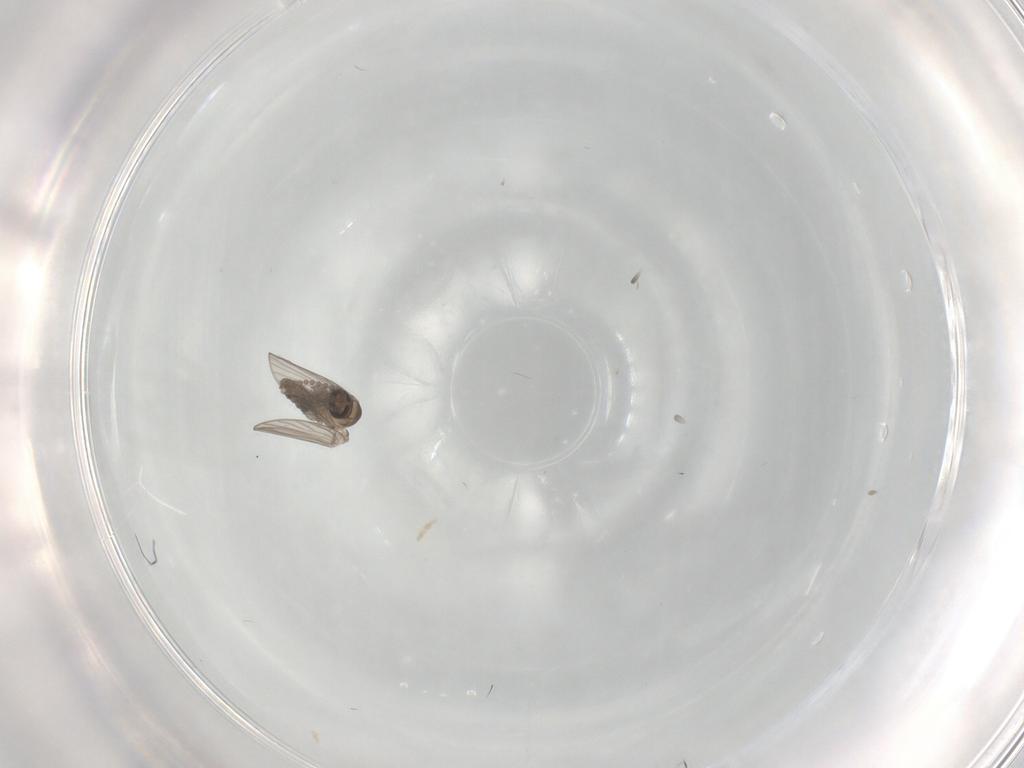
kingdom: Animalia
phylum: Arthropoda
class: Insecta
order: Diptera
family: Psychodidae
